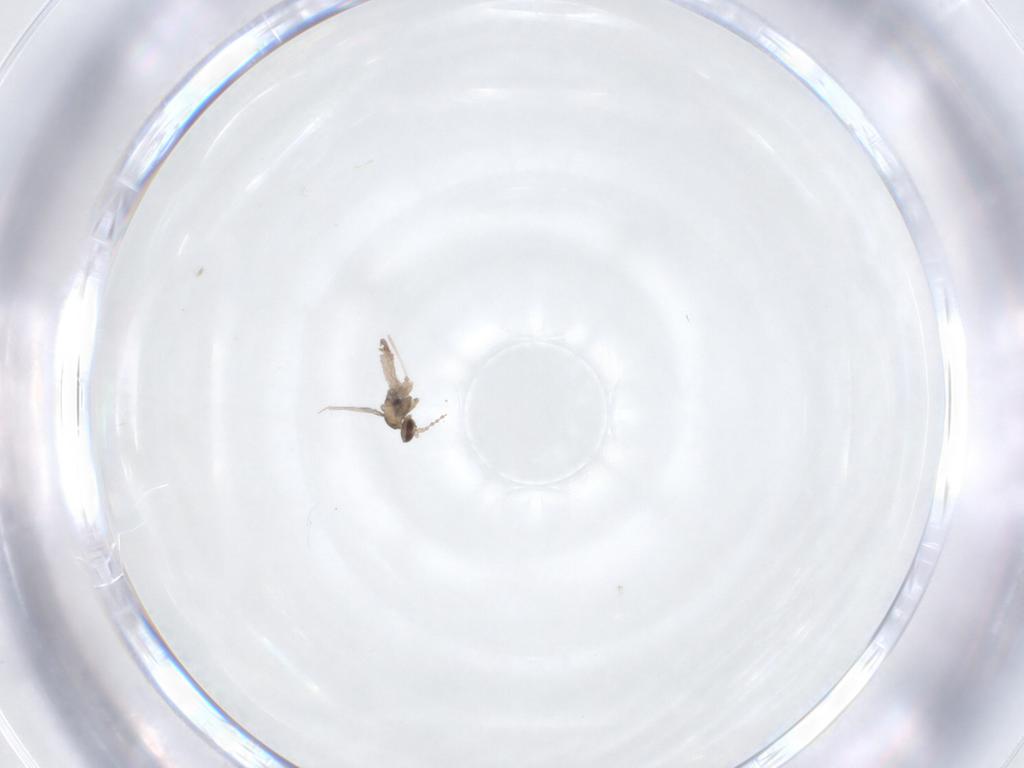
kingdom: Animalia
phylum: Arthropoda
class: Insecta
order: Diptera
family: Cecidomyiidae
